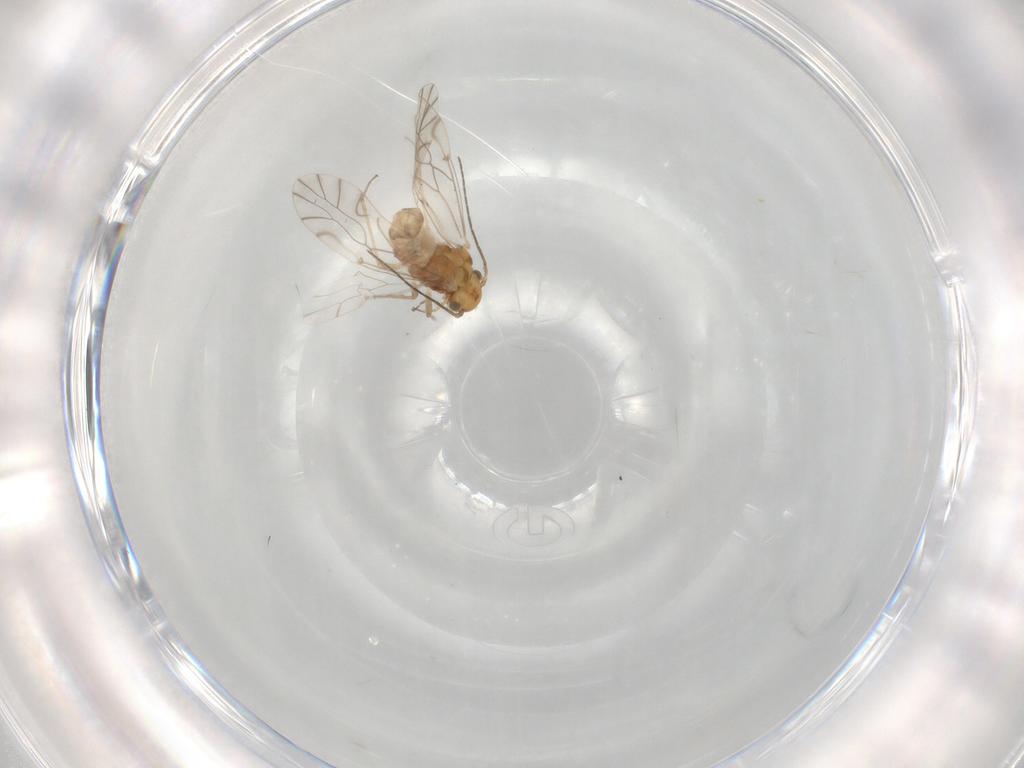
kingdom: Animalia
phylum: Arthropoda
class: Insecta
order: Psocodea
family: Lachesillidae
